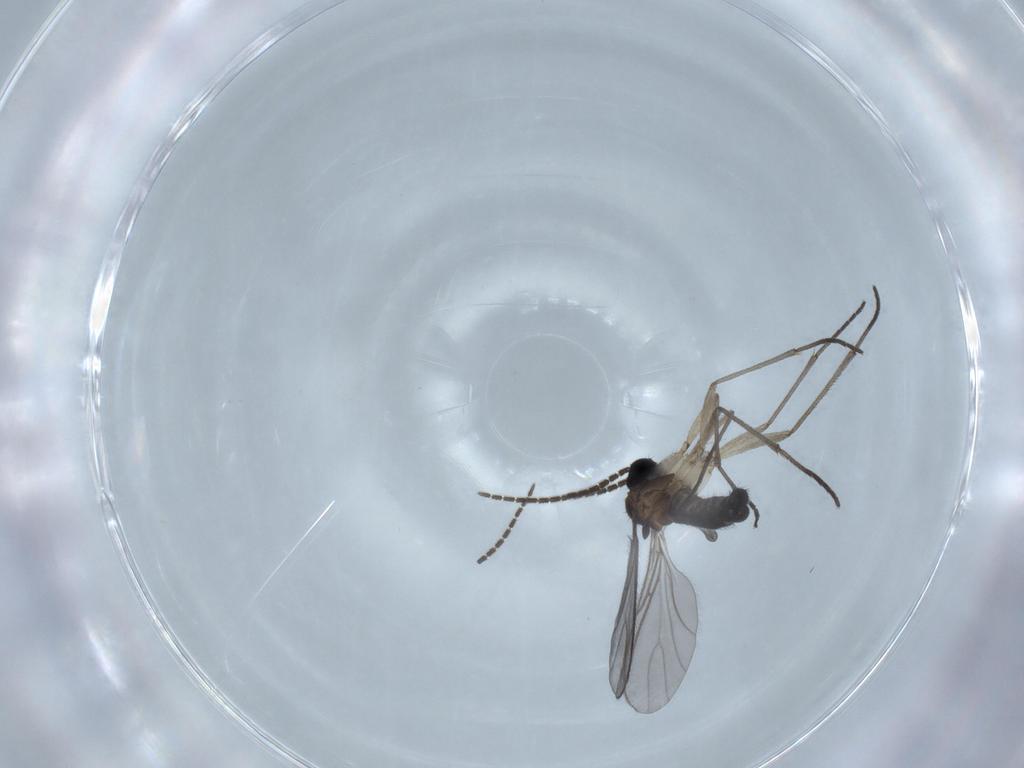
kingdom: Animalia
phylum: Arthropoda
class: Insecta
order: Diptera
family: Sciaridae
